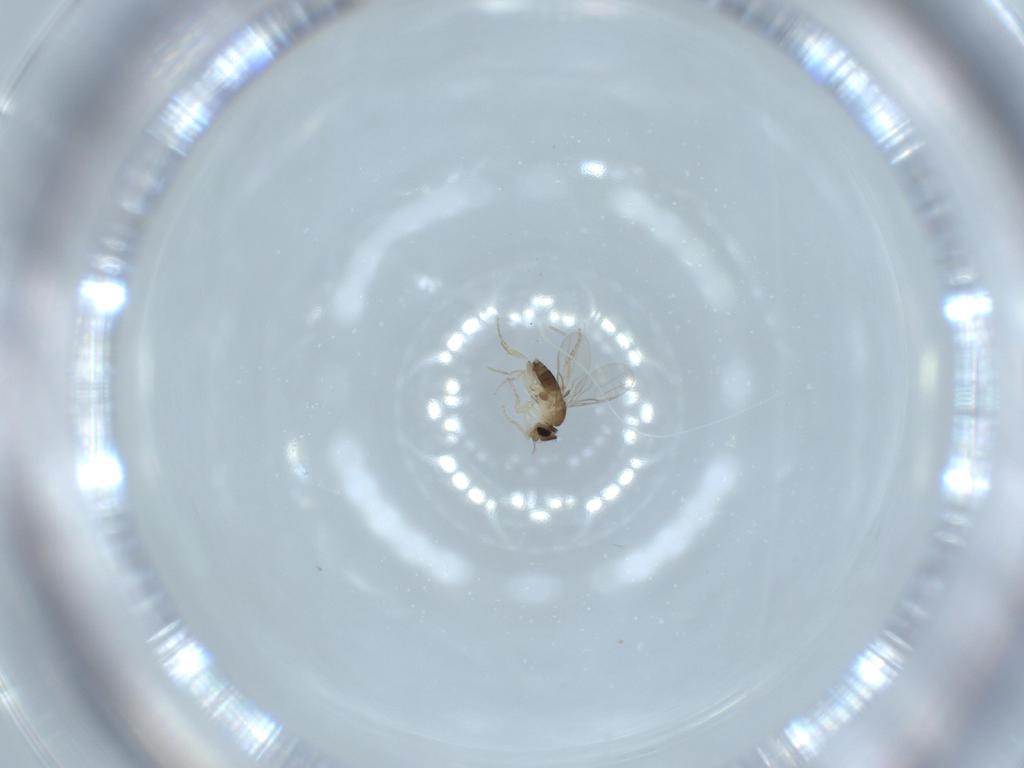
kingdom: Animalia
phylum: Arthropoda
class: Insecta
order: Diptera
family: Phoridae
